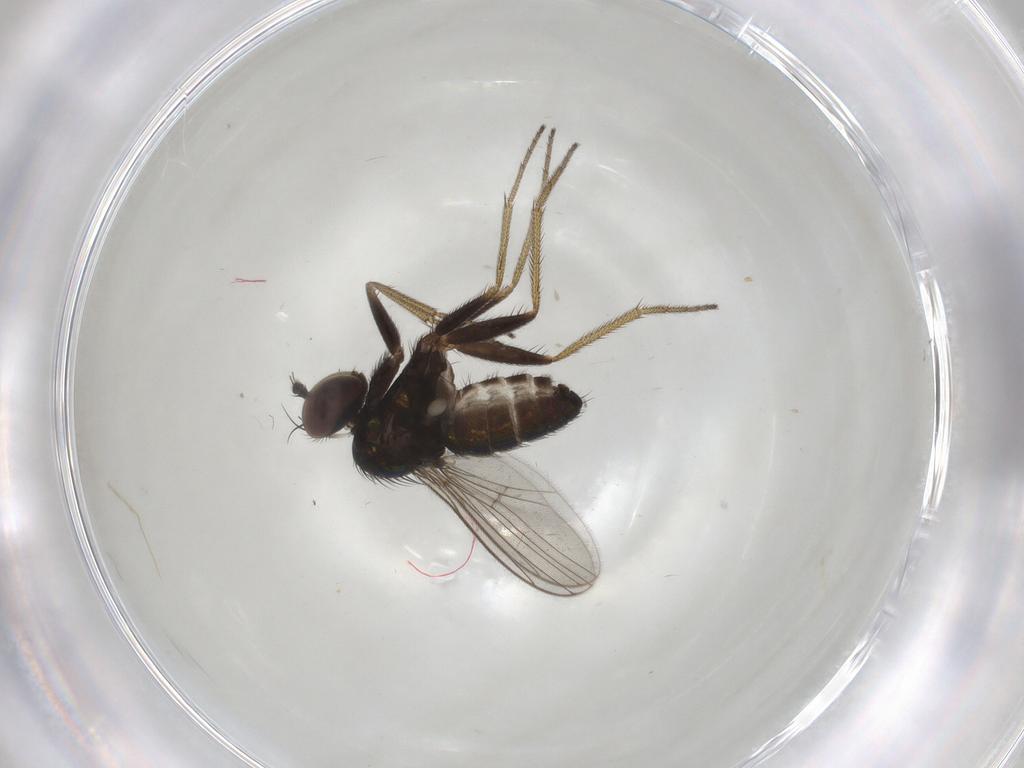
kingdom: Animalia
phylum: Arthropoda
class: Insecta
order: Diptera
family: Dolichopodidae
